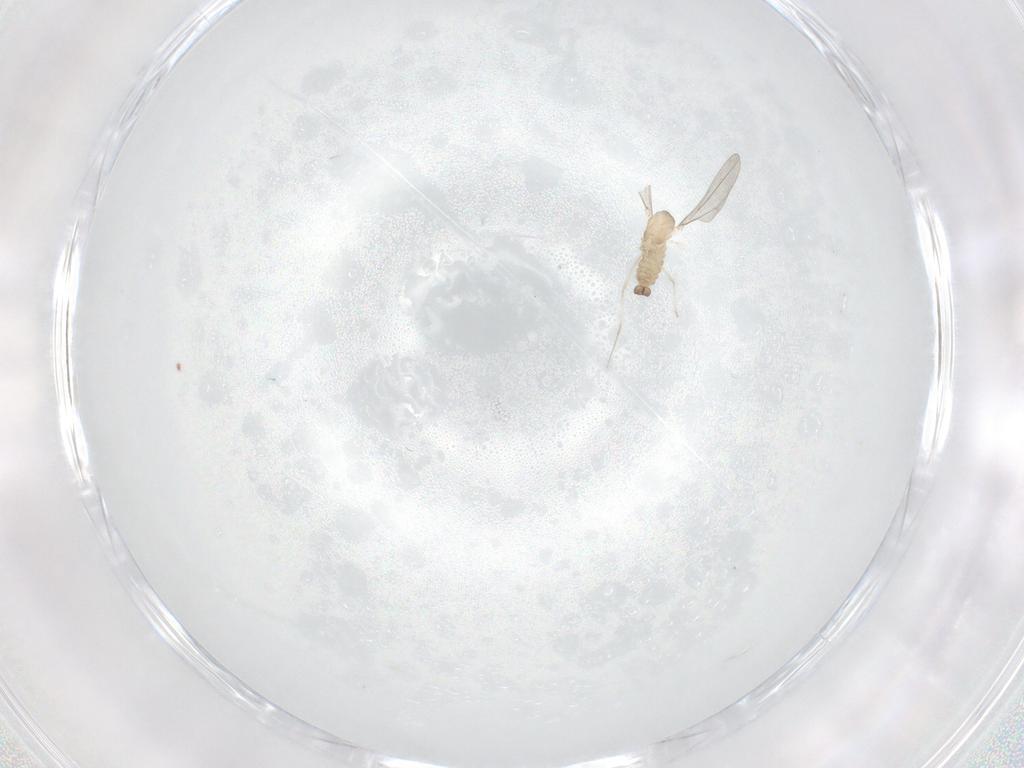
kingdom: Animalia
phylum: Arthropoda
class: Insecta
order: Diptera
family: Cecidomyiidae
